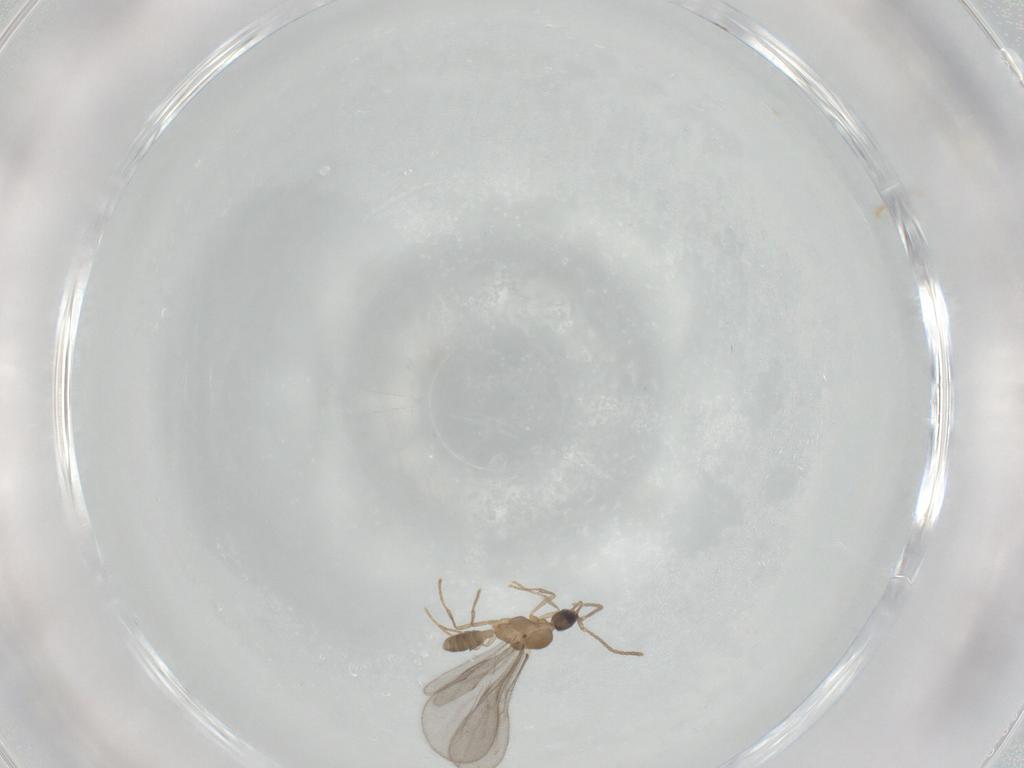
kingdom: Animalia
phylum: Arthropoda
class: Insecta
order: Hymenoptera
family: Formicidae
